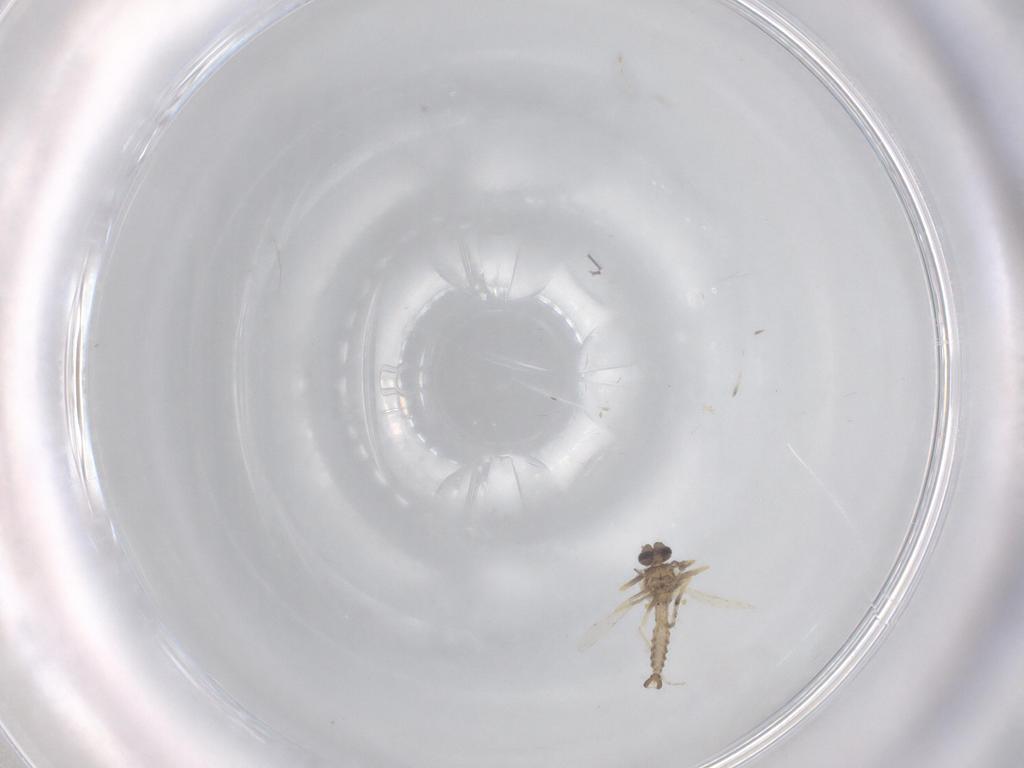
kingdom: Animalia
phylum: Arthropoda
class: Insecta
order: Diptera
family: Ceratopogonidae
